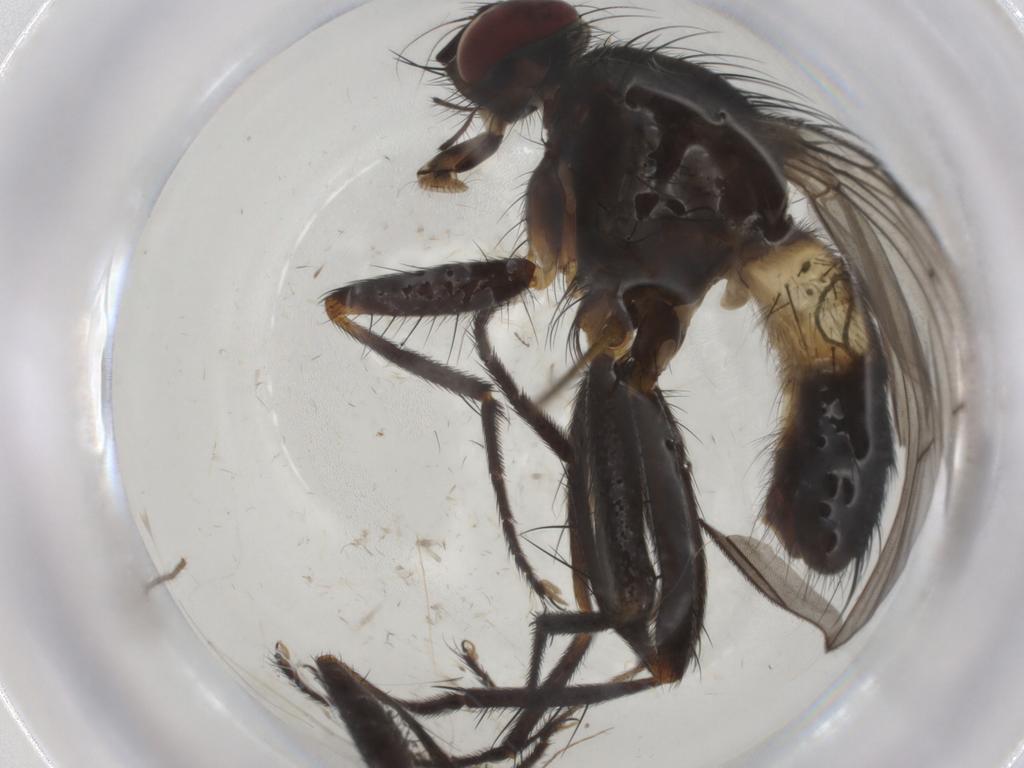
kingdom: Animalia
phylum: Arthropoda
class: Insecta
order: Diptera
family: Muscidae
